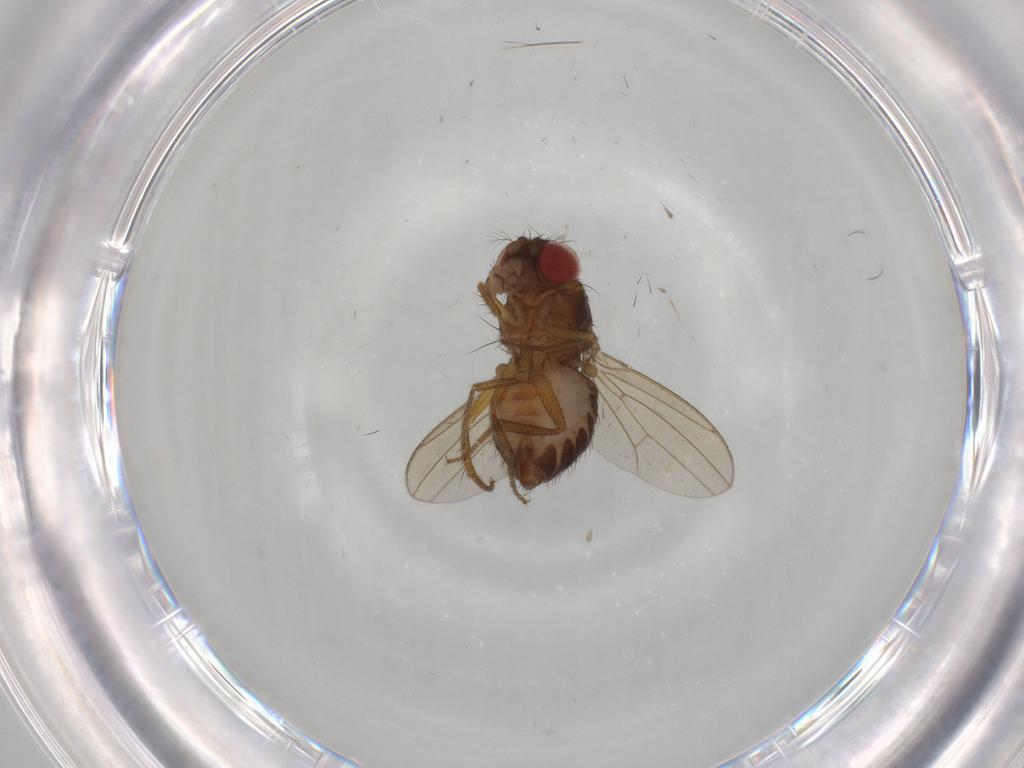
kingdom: Animalia
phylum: Arthropoda
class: Insecta
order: Diptera
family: Drosophilidae
